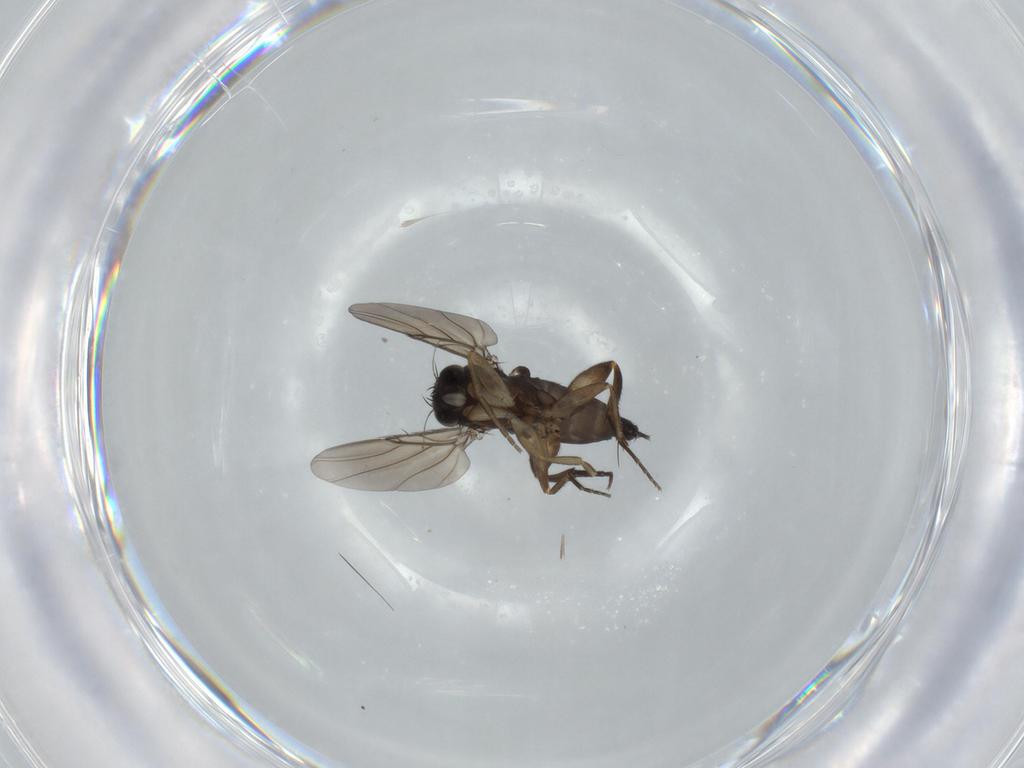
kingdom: Animalia
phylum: Arthropoda
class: Insecta
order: Diptera
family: Phoridae
